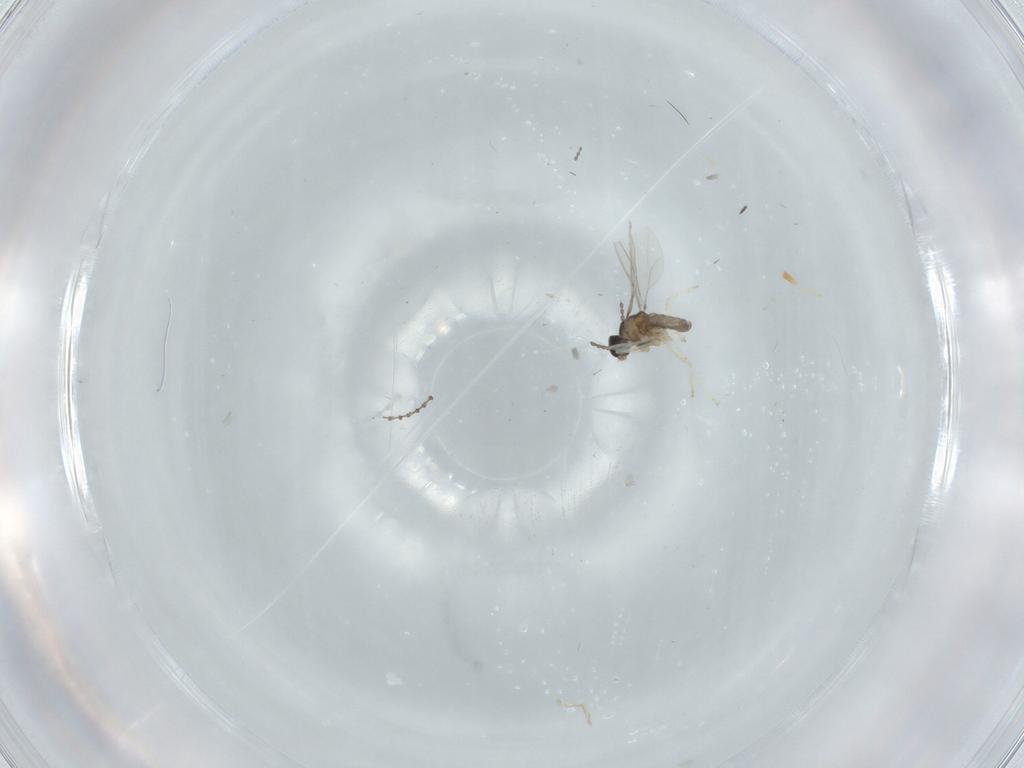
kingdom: Animalia
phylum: Arthropoda
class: Insecta
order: Diptera
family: Cecidomyiidae
